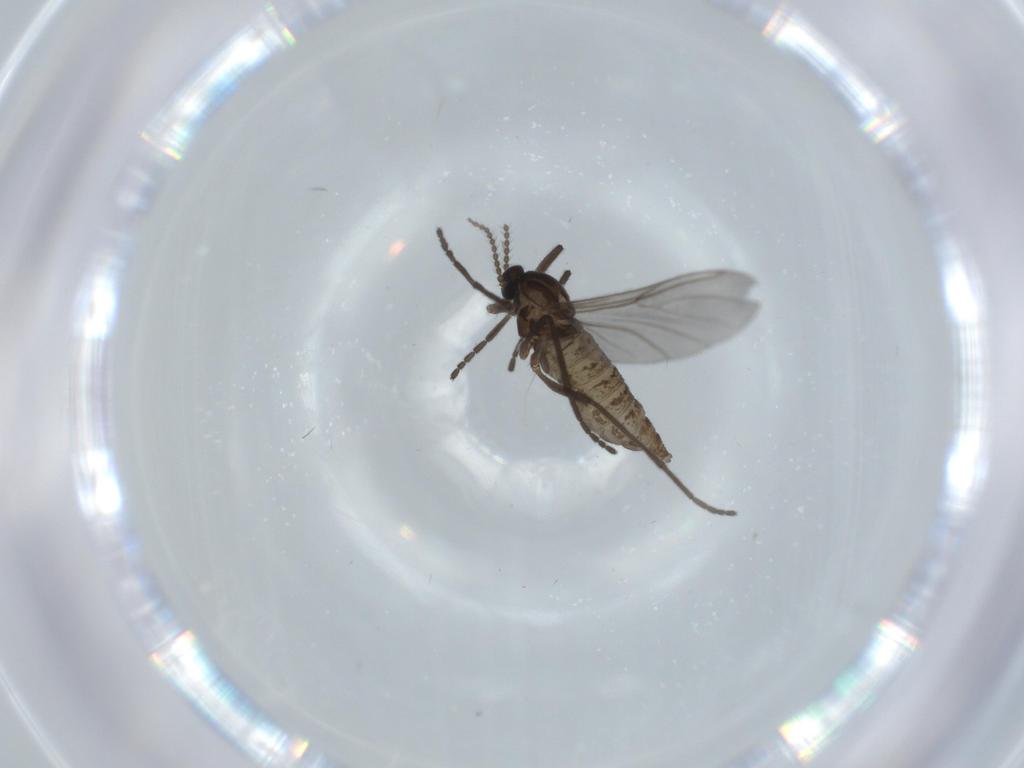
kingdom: Animalia
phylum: Arthropoda
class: Insecta
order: Diptera
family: Cecidomyiidae
